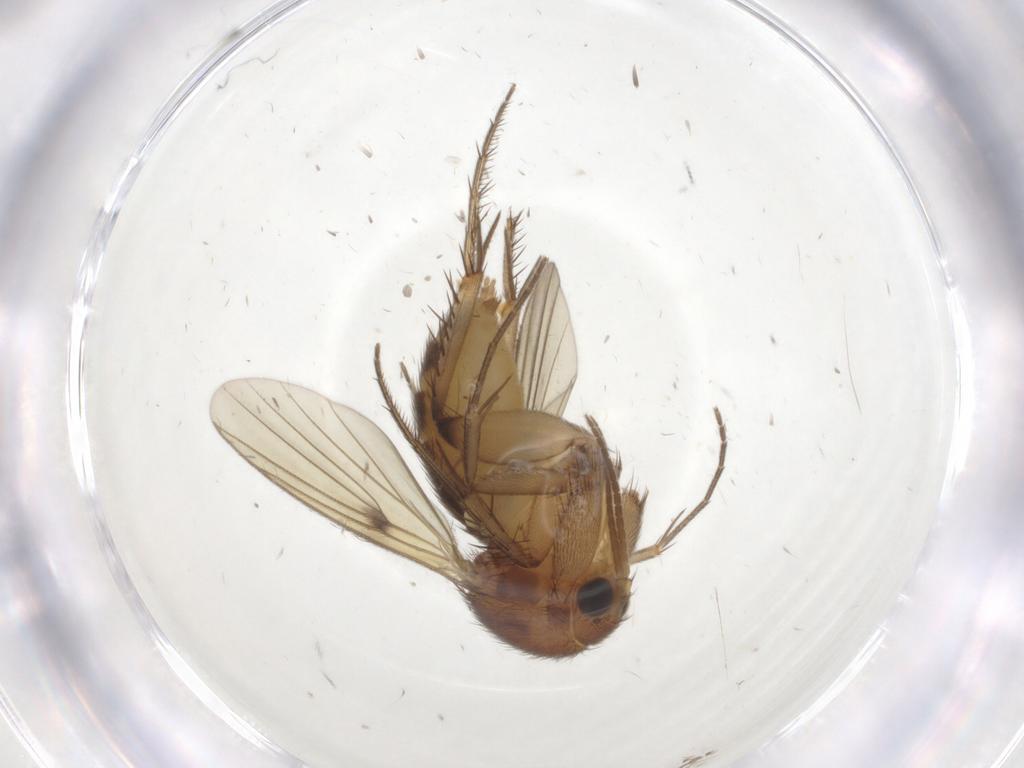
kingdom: Animalia
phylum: Arthropoda
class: Insecta
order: Diptera
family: Mycetophilidae
